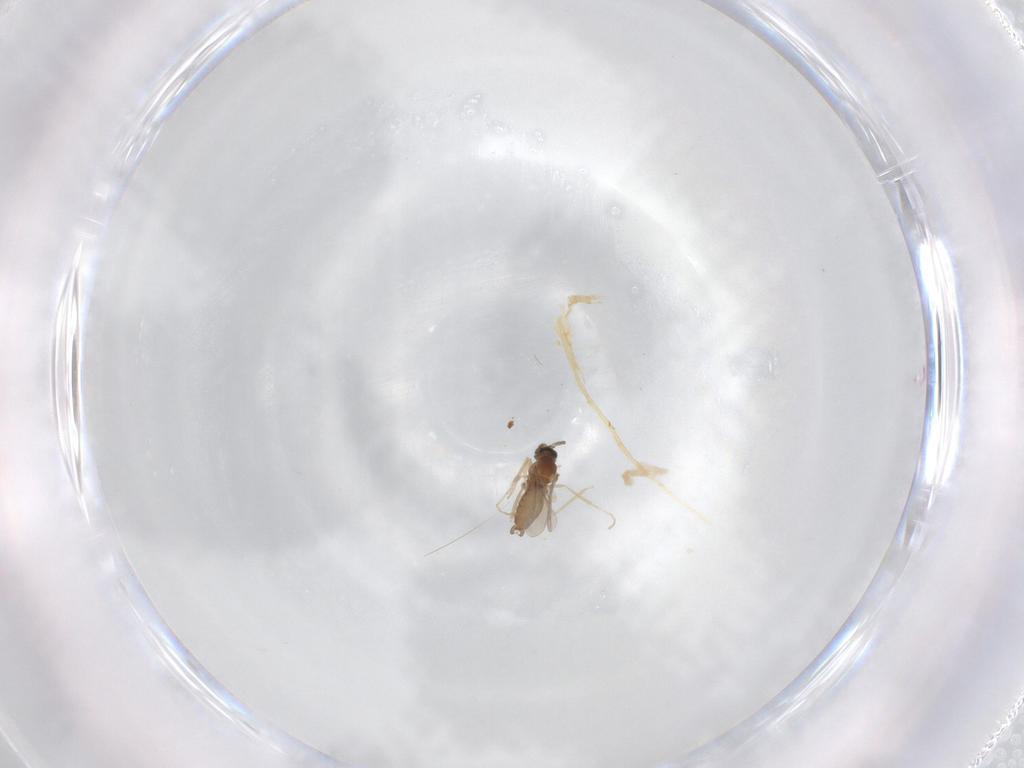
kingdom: Animalia
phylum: Arthropoda
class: Insecta
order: Diptera
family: Cecidomyiidae
